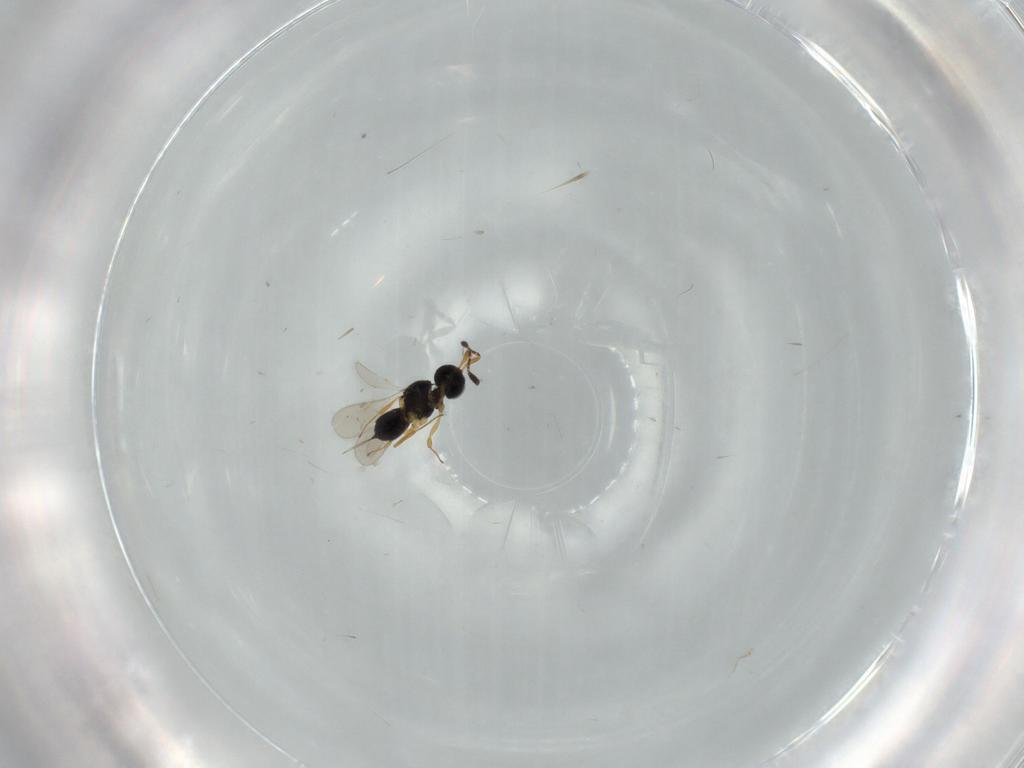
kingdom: Animalia
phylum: Arthropoda
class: Insecta
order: Hymenoptera
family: Scelionidae
